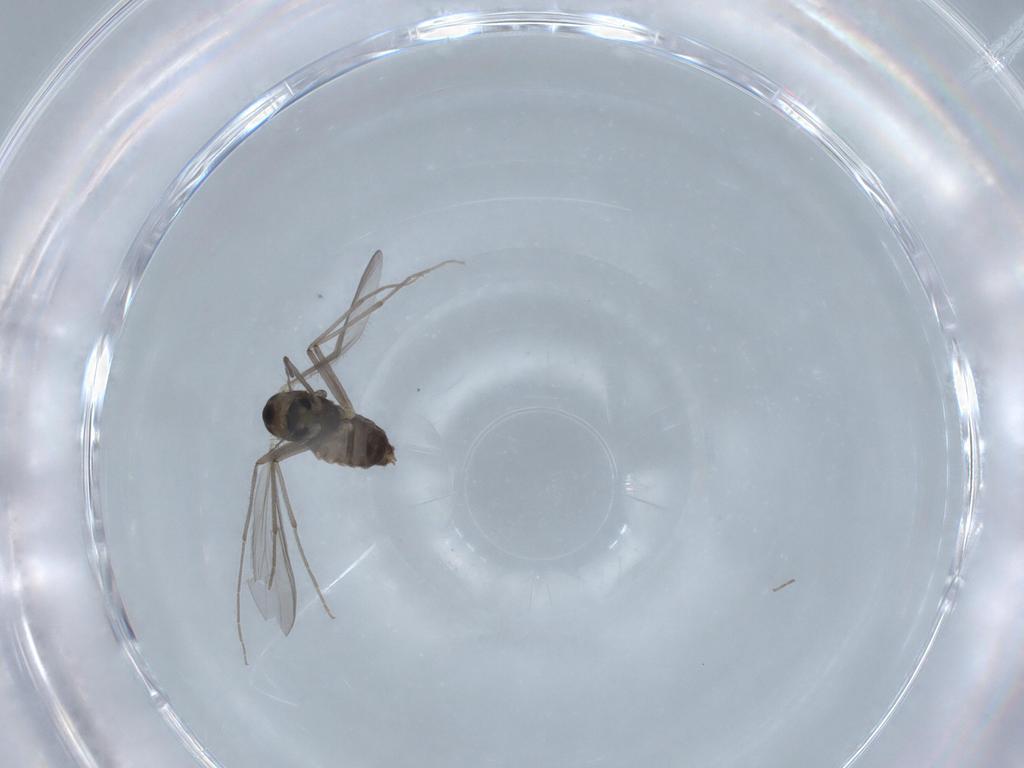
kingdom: Animalia
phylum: Arthropoda
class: Insecta
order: Diptera
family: Chironomidae
